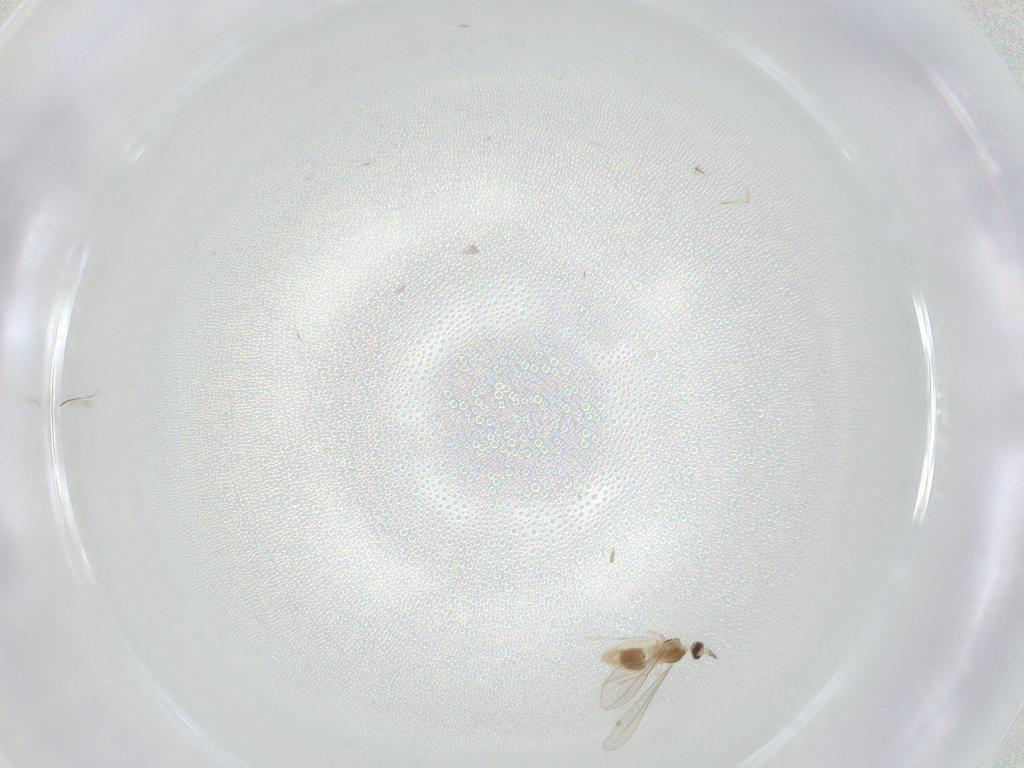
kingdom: Animalia
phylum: Arthropoda
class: Insecta
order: Diptera
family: Cecidomyiidae
